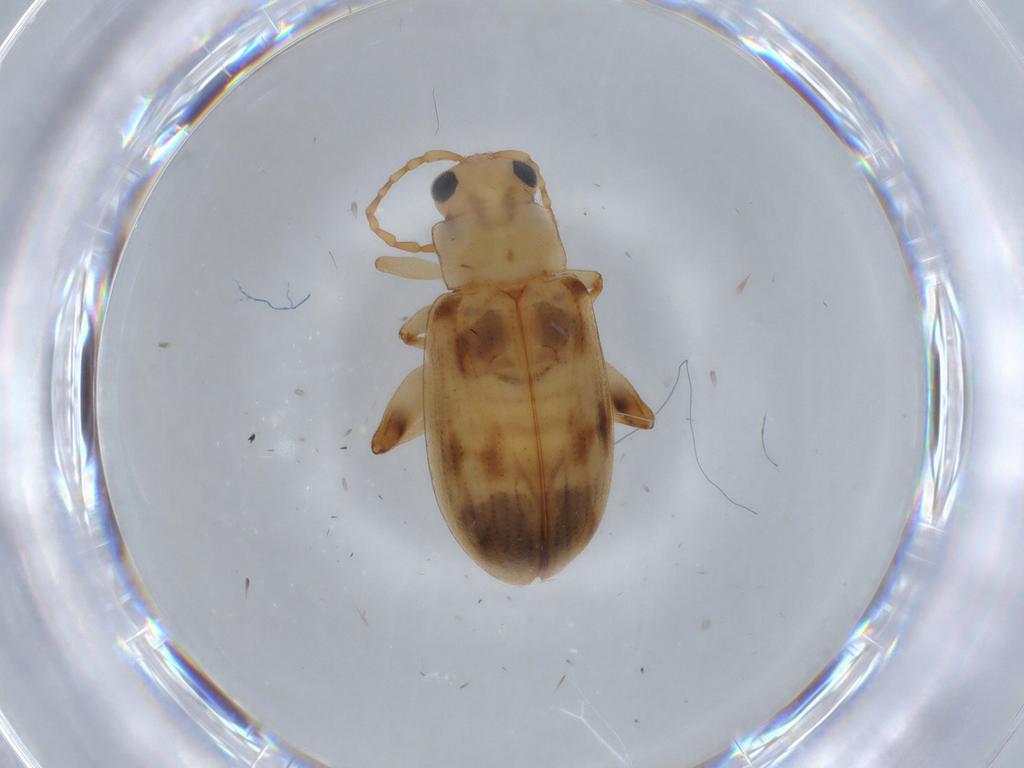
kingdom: Animalia
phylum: Arthropoda
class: Insecta
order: Coleoptera
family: Chrysomelidae
